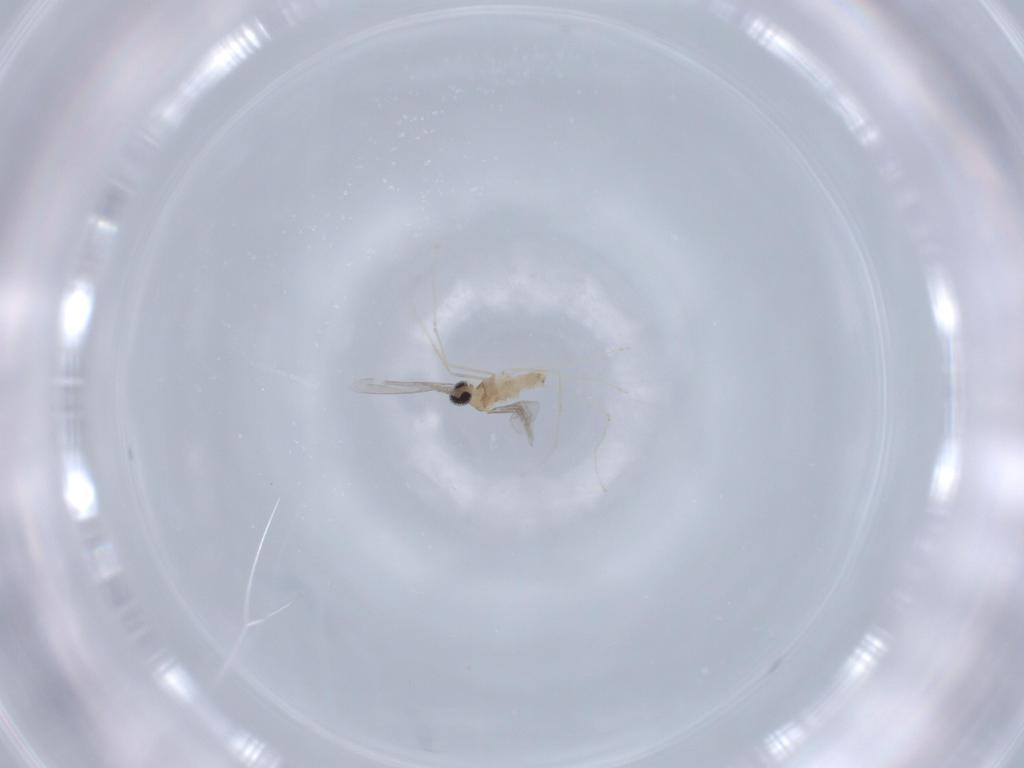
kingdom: Animalia
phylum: Arthropoda
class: Insecta
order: Diptera
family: Cecidomyiidae
